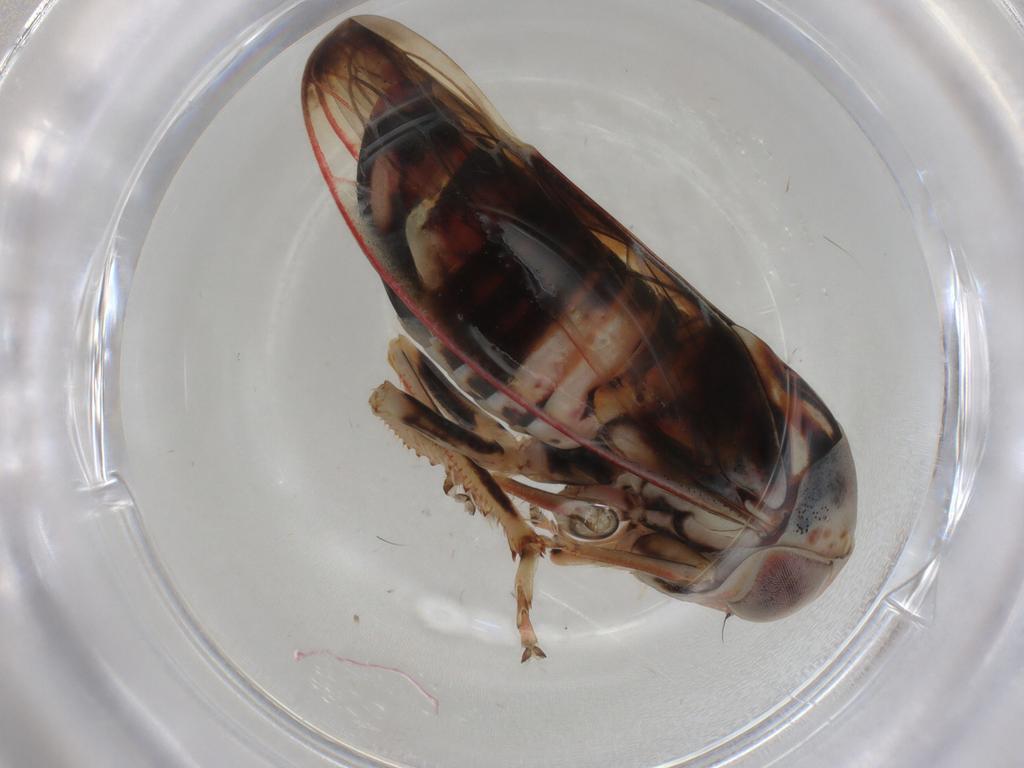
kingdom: Animalia
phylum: Arthropoda
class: Insecta
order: Hemiptera
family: Cicadellidae
